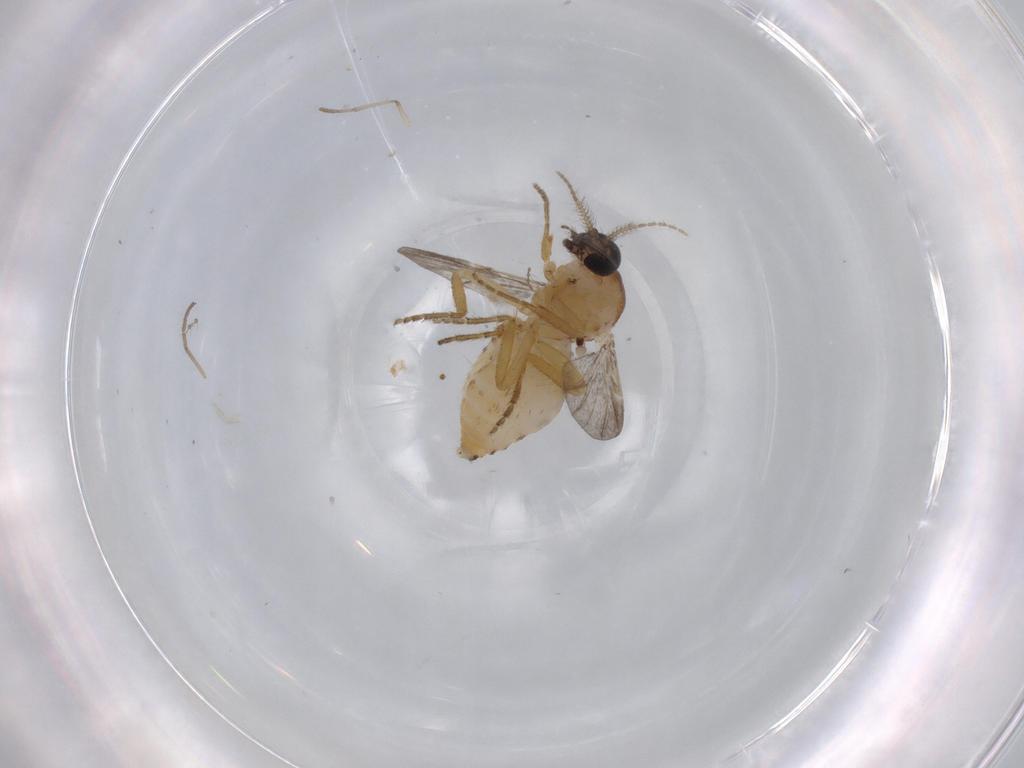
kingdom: Animalia
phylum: Arthropoda
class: Insecta
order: Diptera
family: Ceratopogonidae
